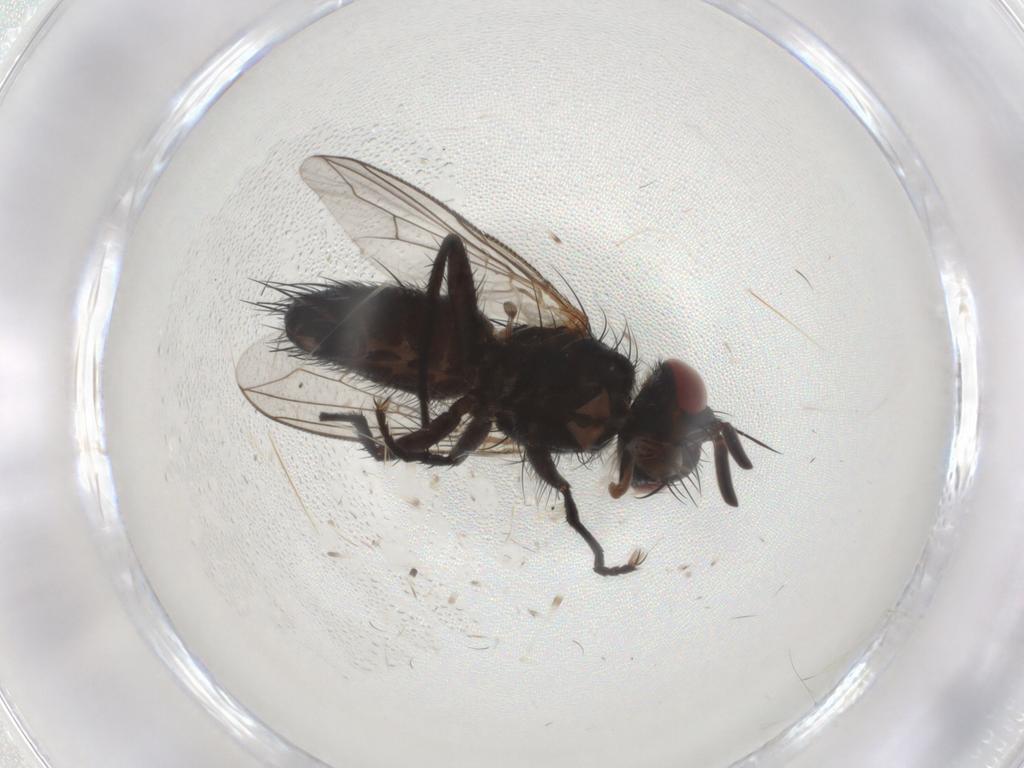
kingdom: Animalia
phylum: Arthropoda
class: Insecta
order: Diptera
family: Tachinidae
